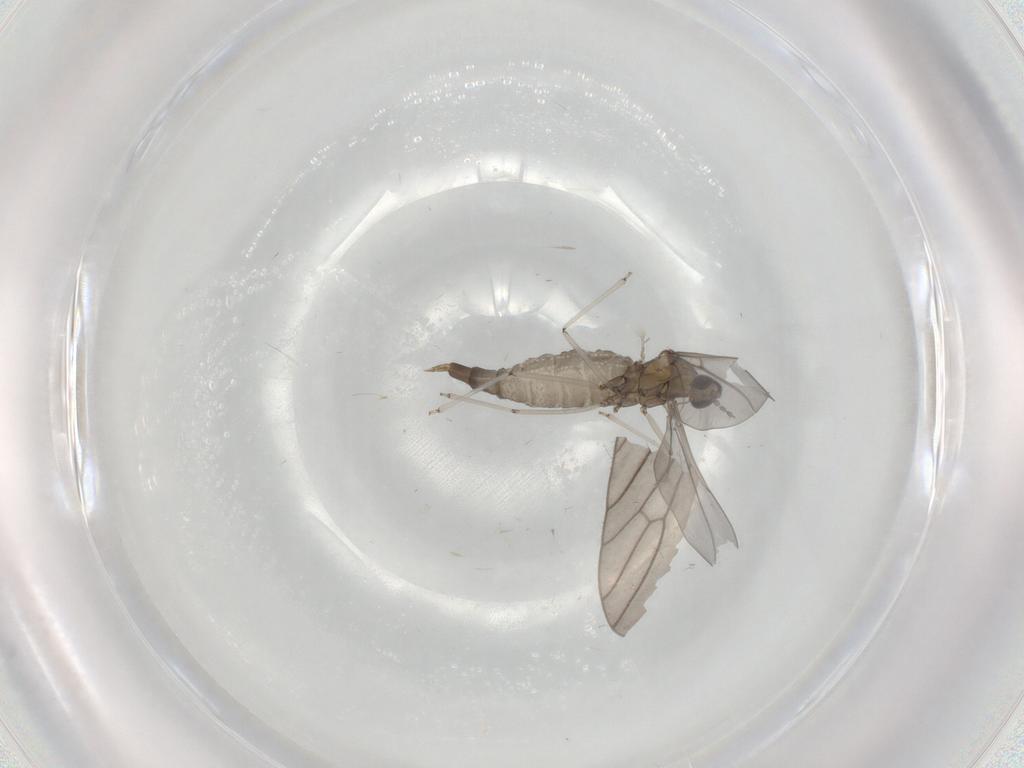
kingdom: Animalia
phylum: Arthropoda
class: Insecta
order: Diptera
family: Limoniidae
